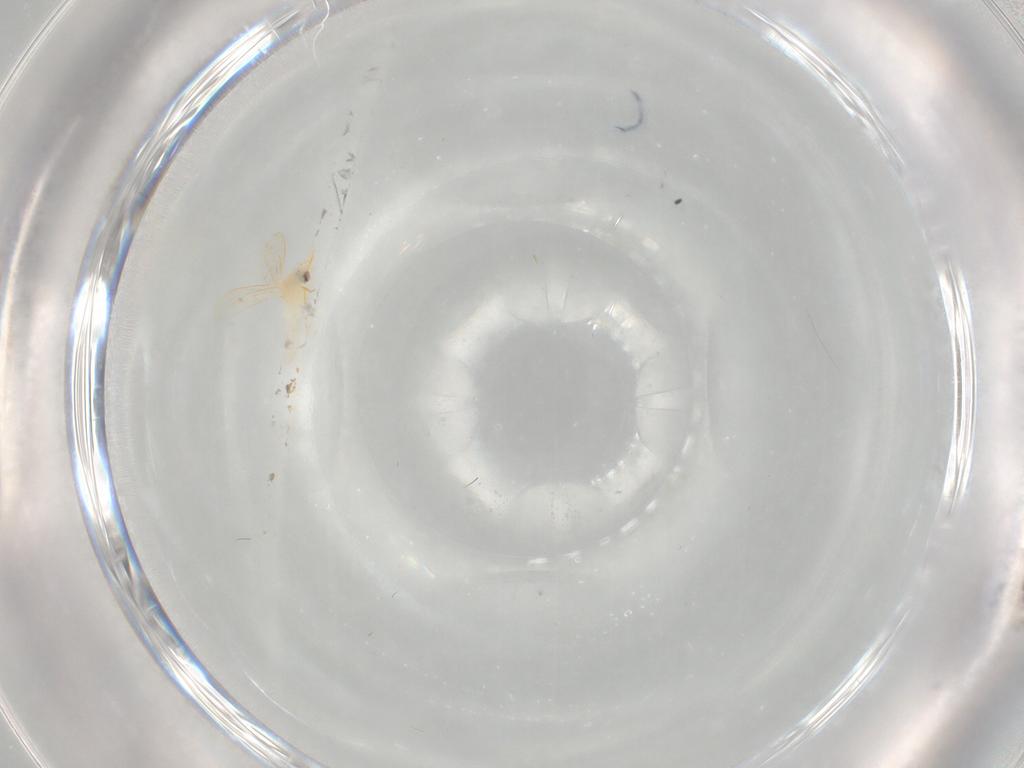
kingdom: Animalia
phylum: Arthropoda
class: Insecta
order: Hemiptera
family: Aleyrodidae
